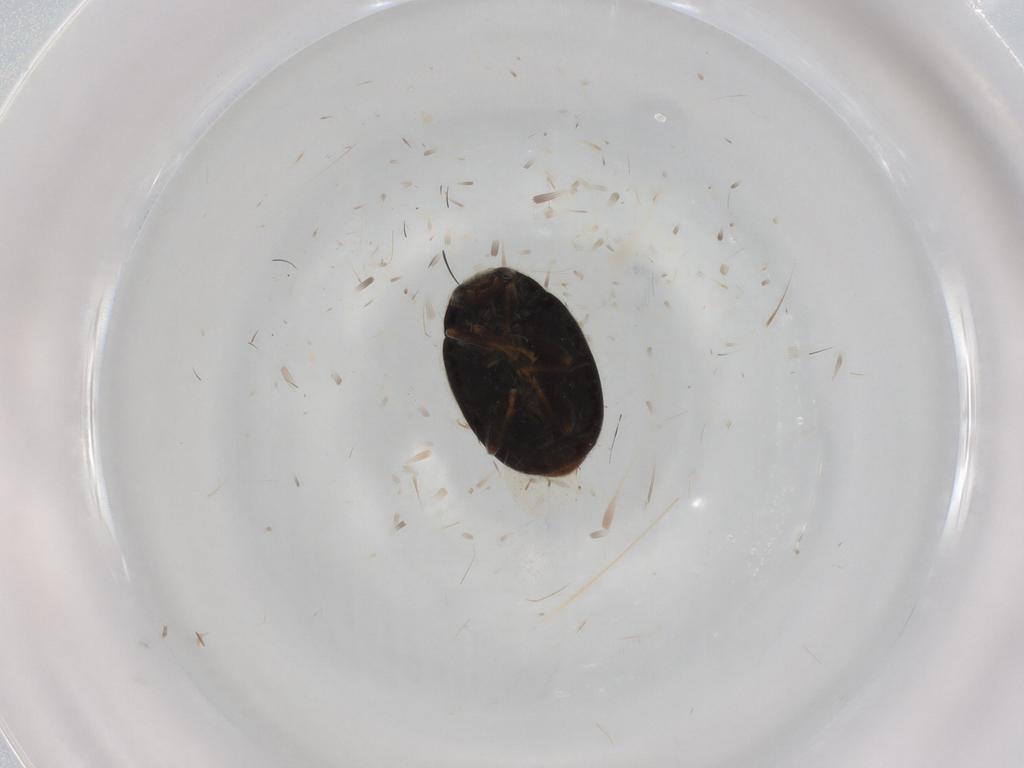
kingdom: Animalia
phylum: Arthropoda
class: Insecta
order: Coleoptera
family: Coccinellidae
